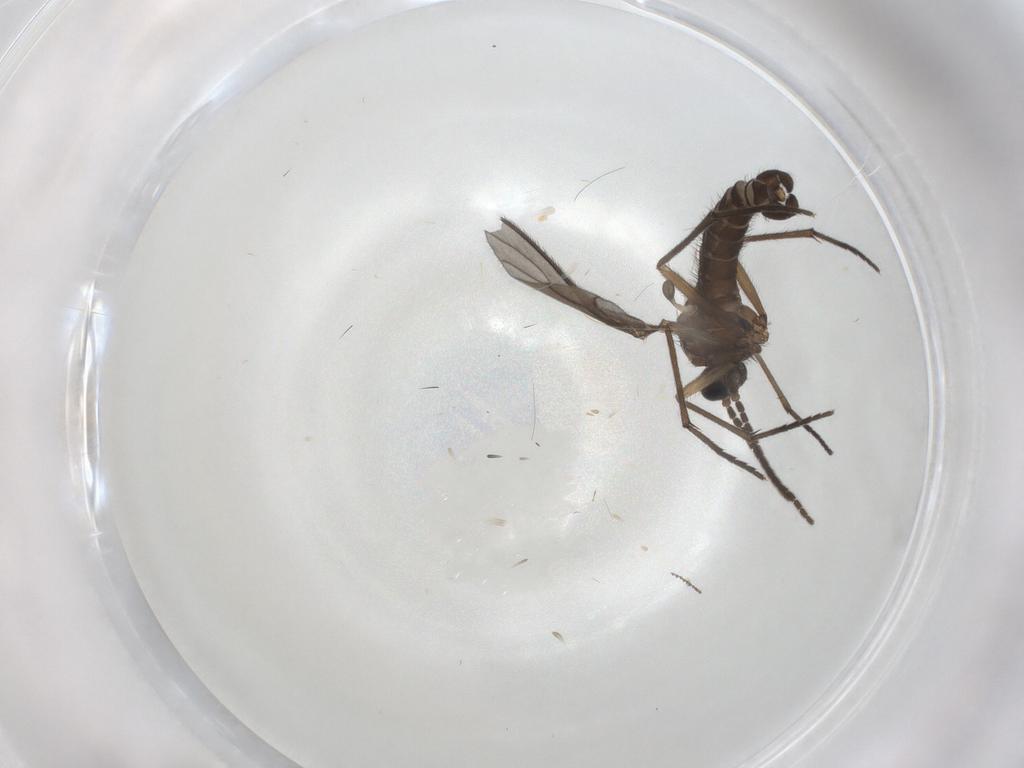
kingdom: Animalia
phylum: Arthropoda
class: Insecta
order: Diptera
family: Sciaridae
